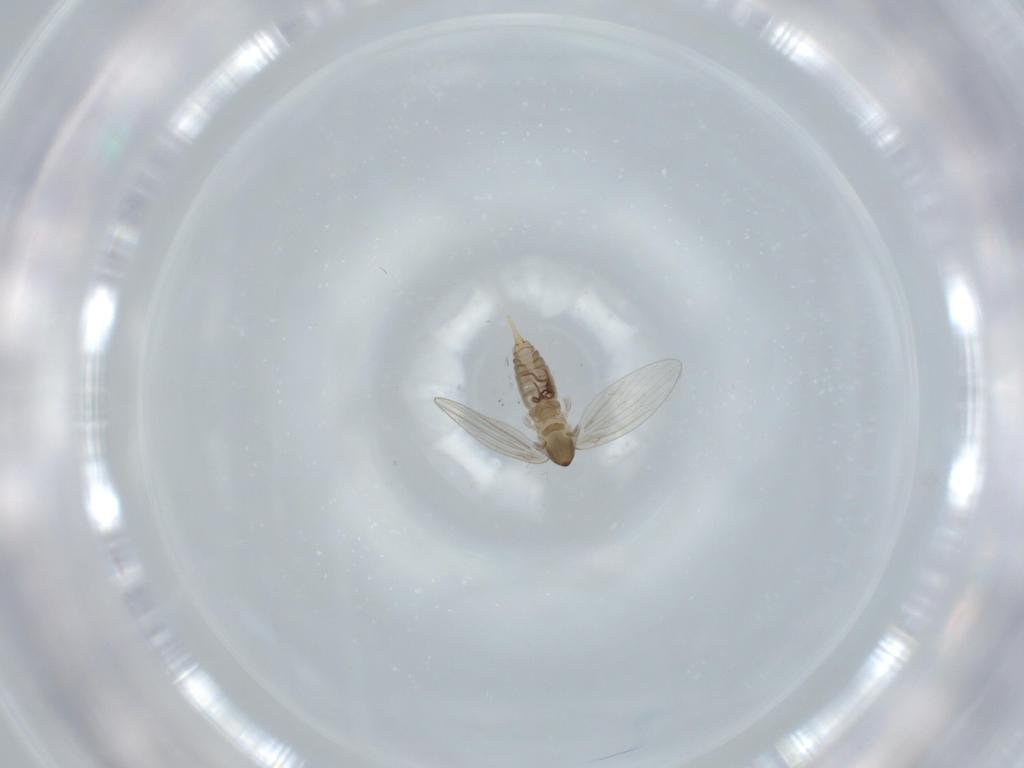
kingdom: Animalia
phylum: Arthropoda
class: Insecta
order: Diptera
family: Psychodidae
